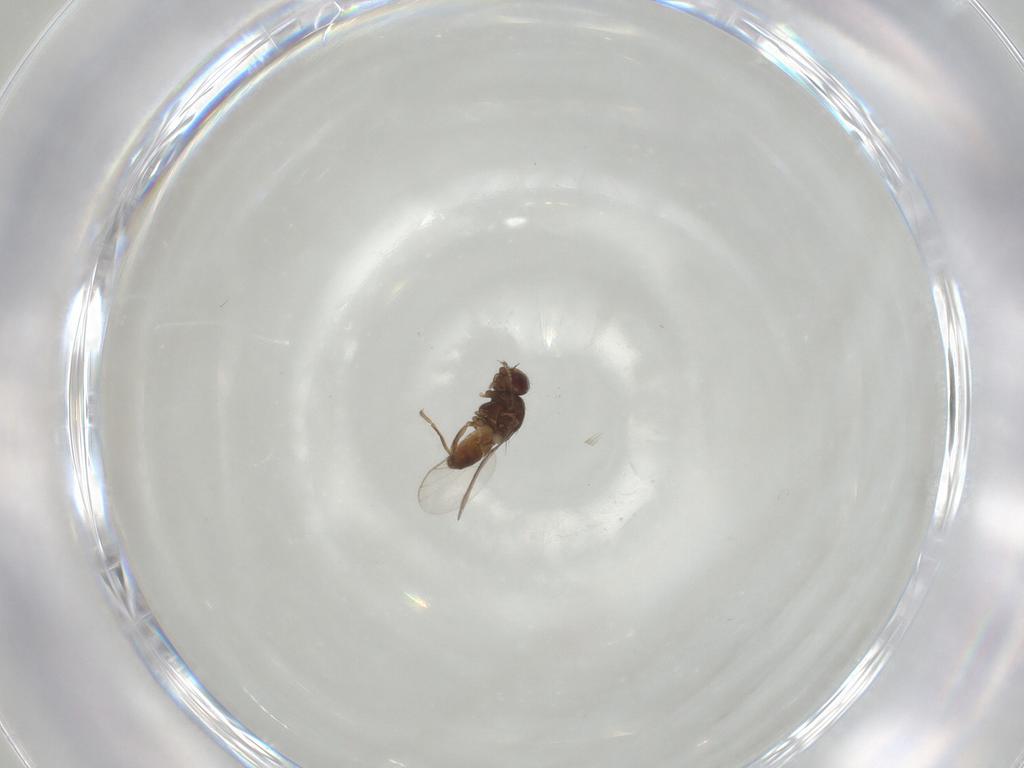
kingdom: Animalia
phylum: Arthropoda
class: Insecta
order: Diptera
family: Chloropidae
